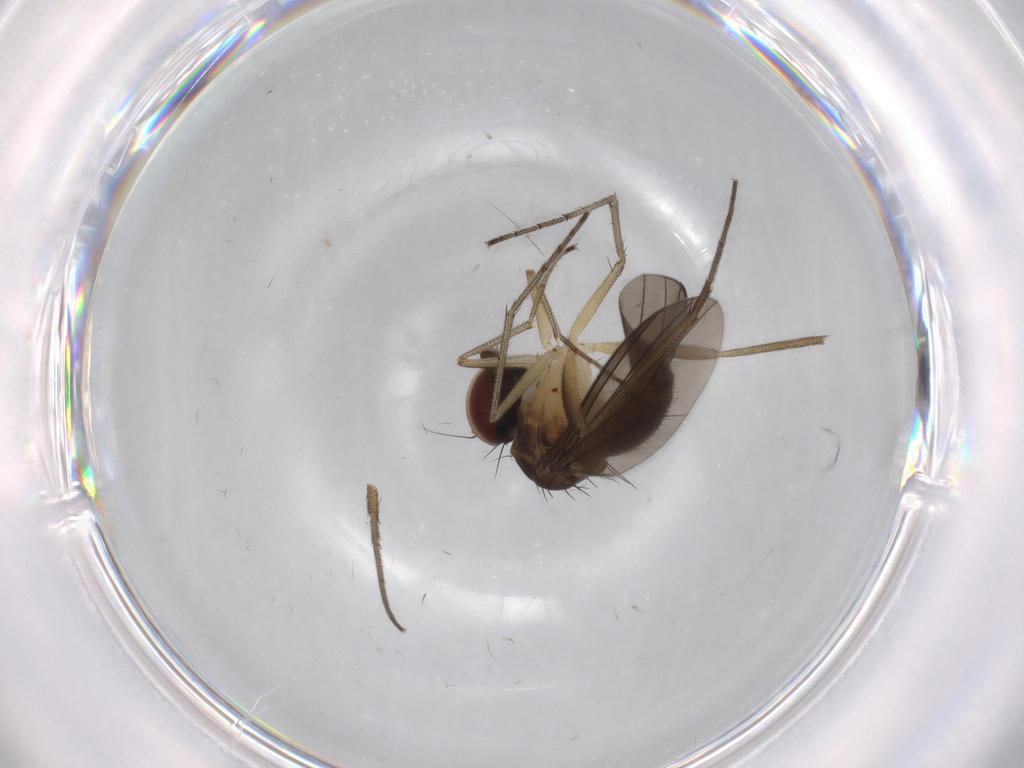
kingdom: Animalia
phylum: Arthropoda
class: Insecta
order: Diptera
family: Dolichopodidae
